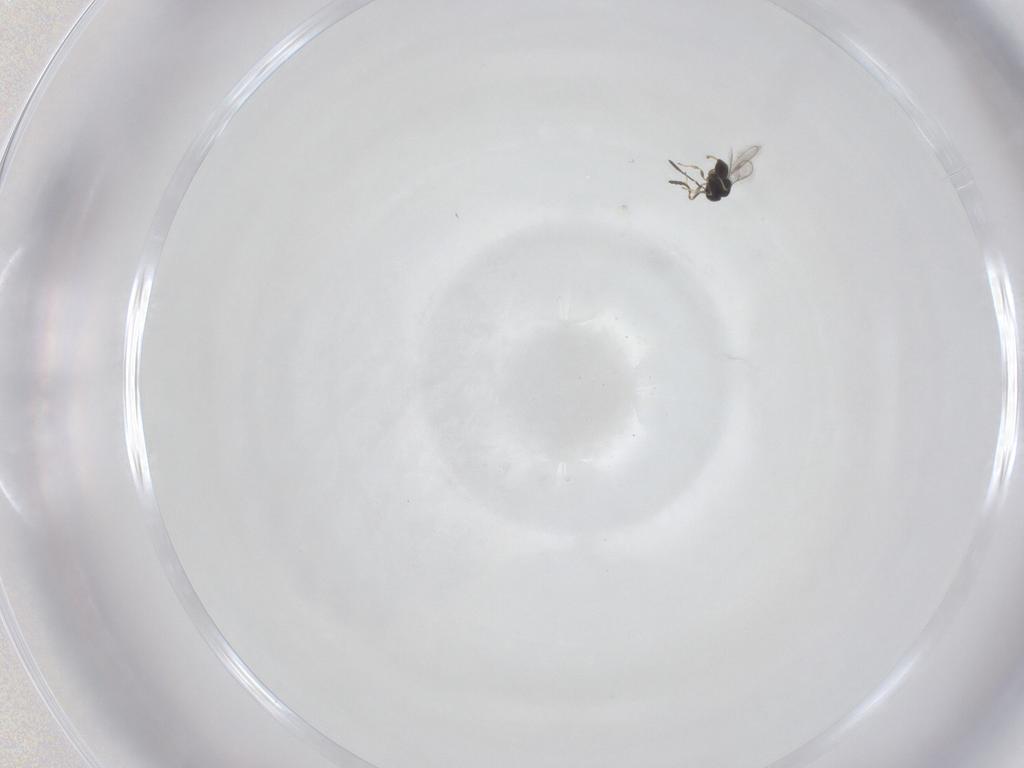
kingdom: Animalia
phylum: Arthropoda
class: Insecta
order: Hymenoptera
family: Scelionidae
